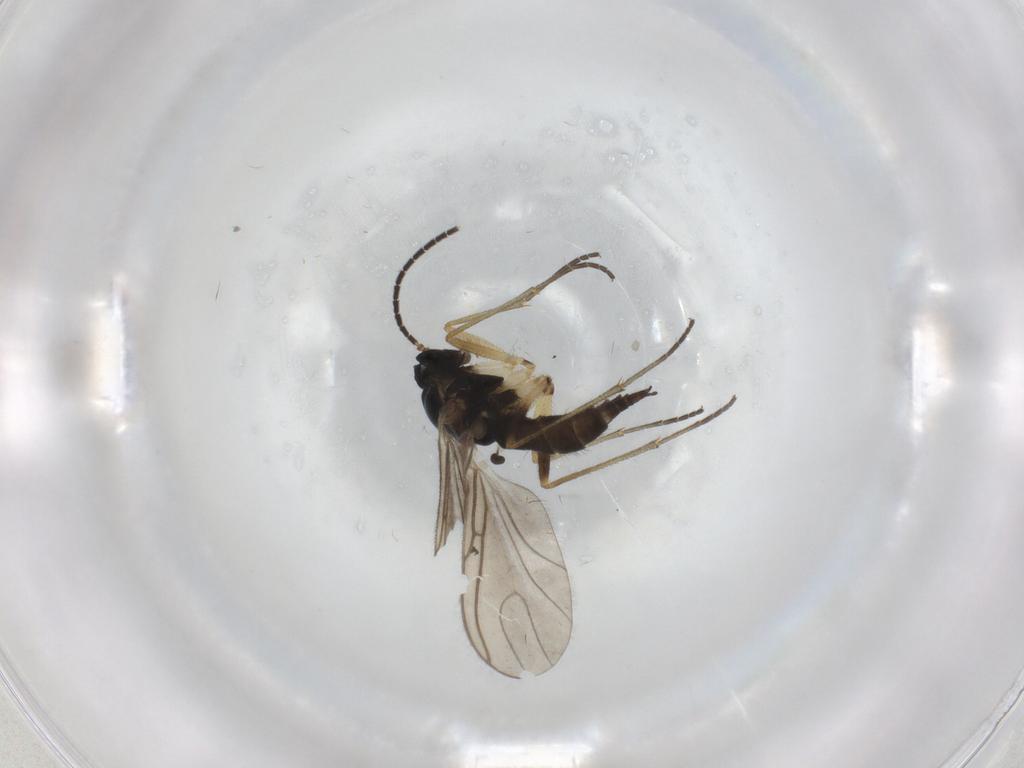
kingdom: Animalia
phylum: Arthropoda
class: Insecta
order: Diptera
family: Sciaridae
